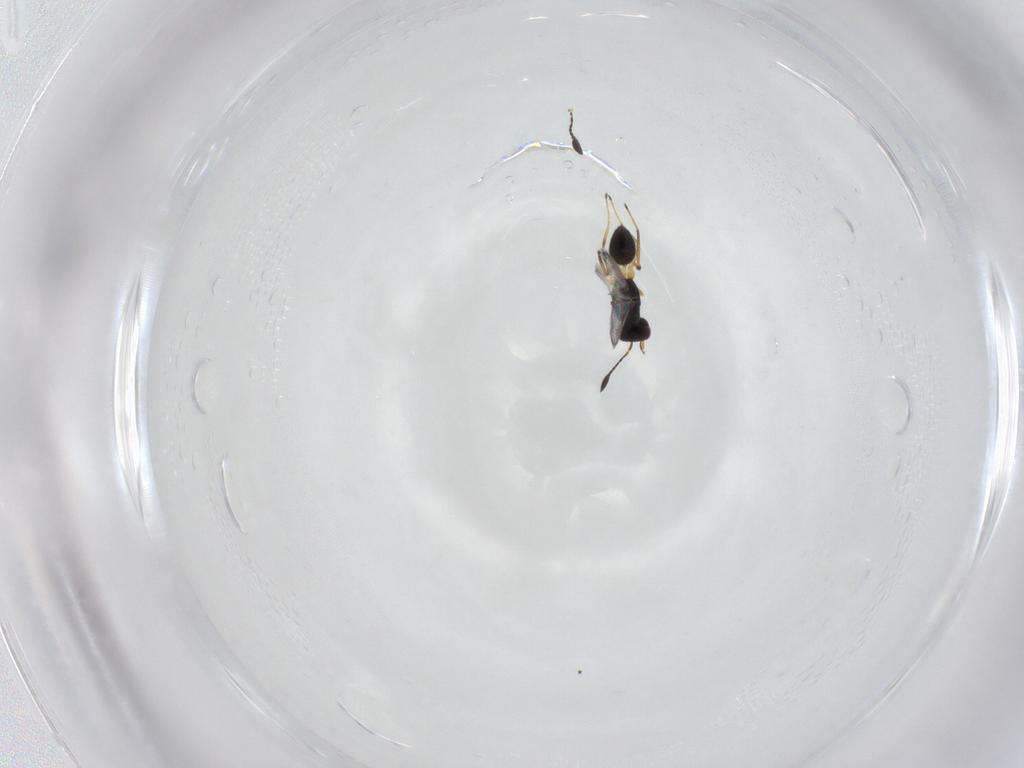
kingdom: Animalia
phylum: Arthropoda
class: Insecta
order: Hymenoptera
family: Mymaridae
